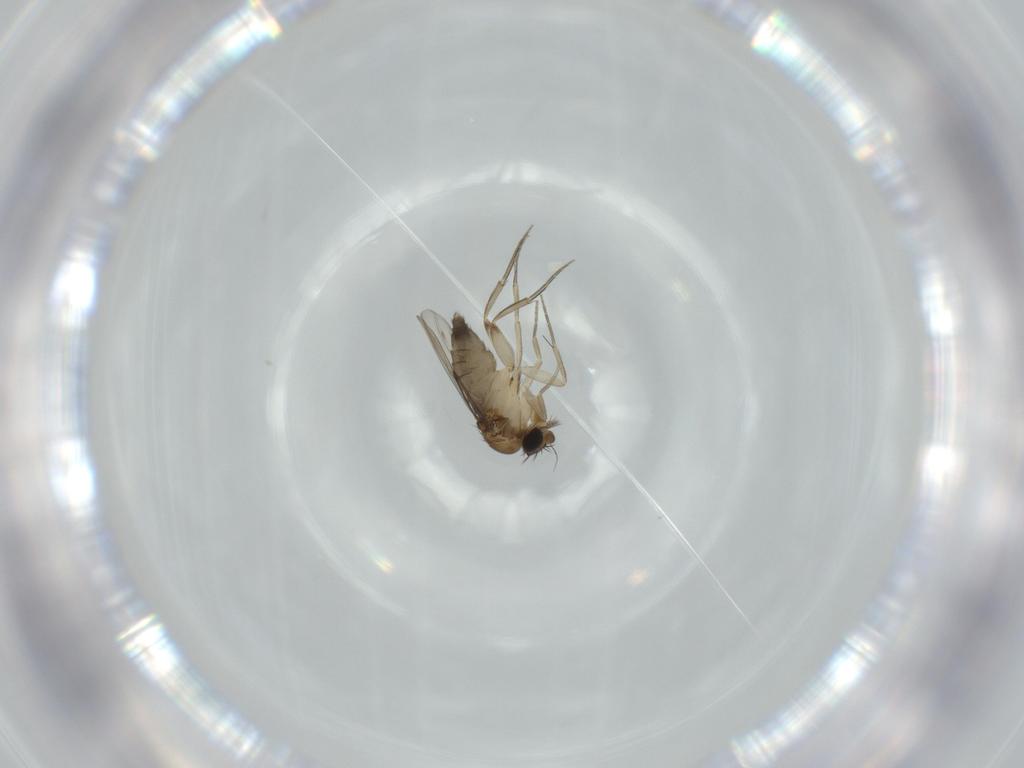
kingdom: Animalia
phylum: Arthropoda
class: Insecta
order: Diptera
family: Phoridae
